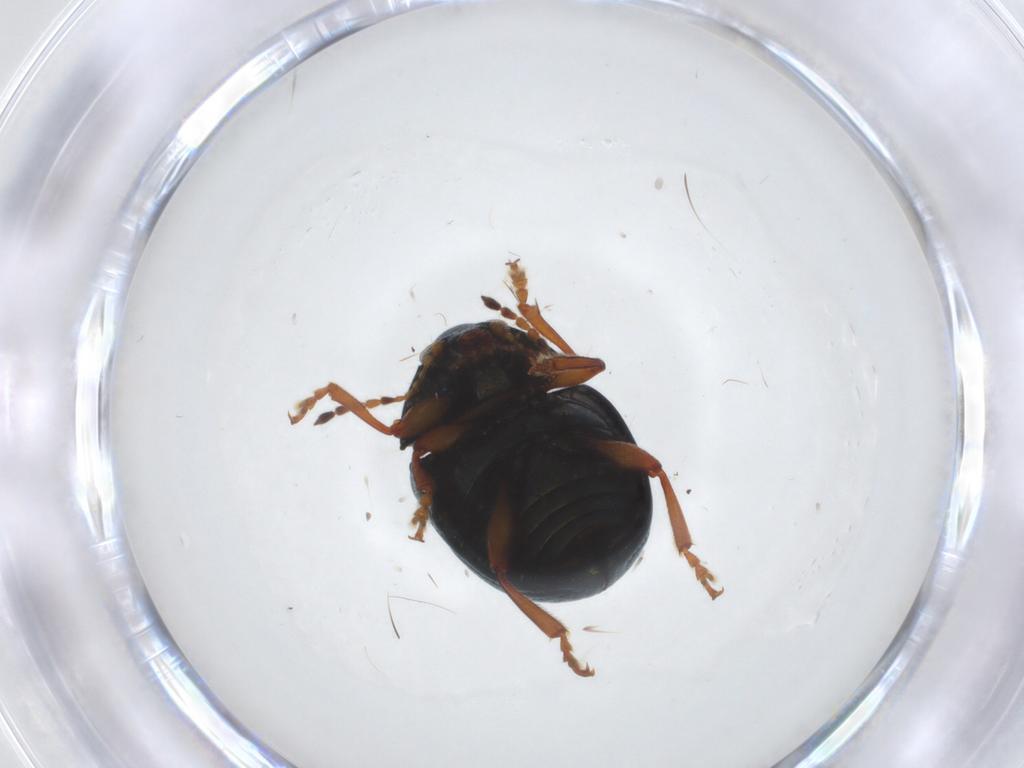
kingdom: Animalia
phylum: Arthropoda
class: Insecta
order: Coleoptera
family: Chrysomelidae
